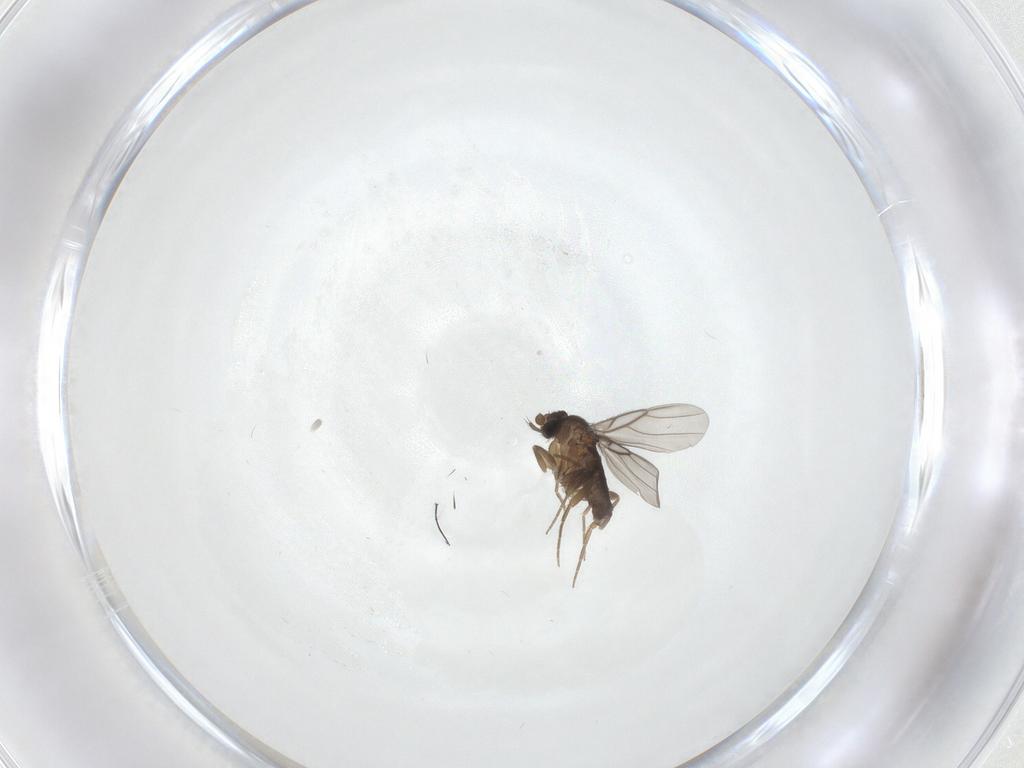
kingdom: Animalia
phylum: Arthropoda
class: Insecta
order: Diptera
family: Phoridae
